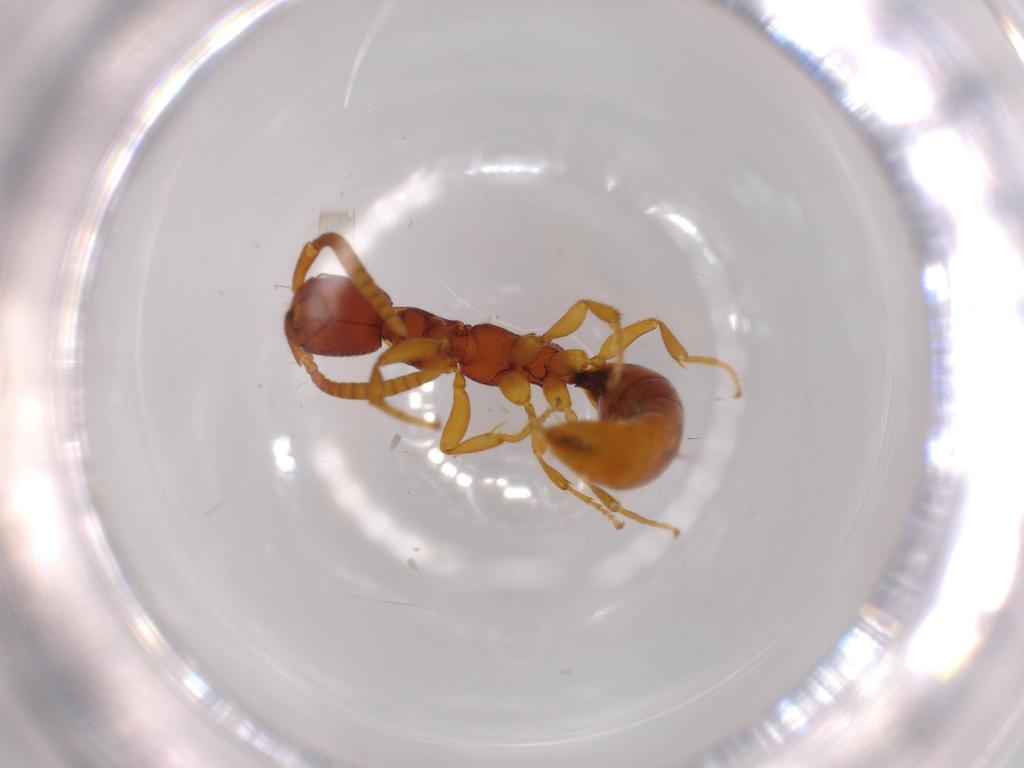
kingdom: Animalia
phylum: Arthropoda
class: Insecta
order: Hymenoptera
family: Bethylidae
